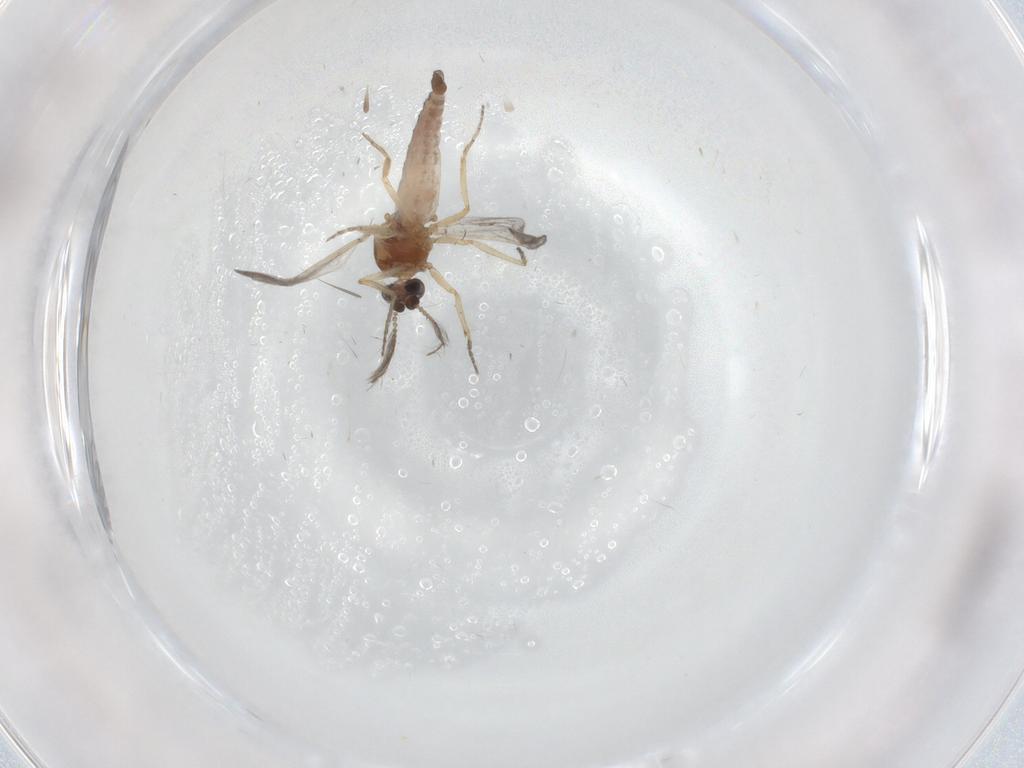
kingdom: Animalia
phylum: Arthropoda
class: Insecta
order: Diptera
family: Ceratopogonidae
